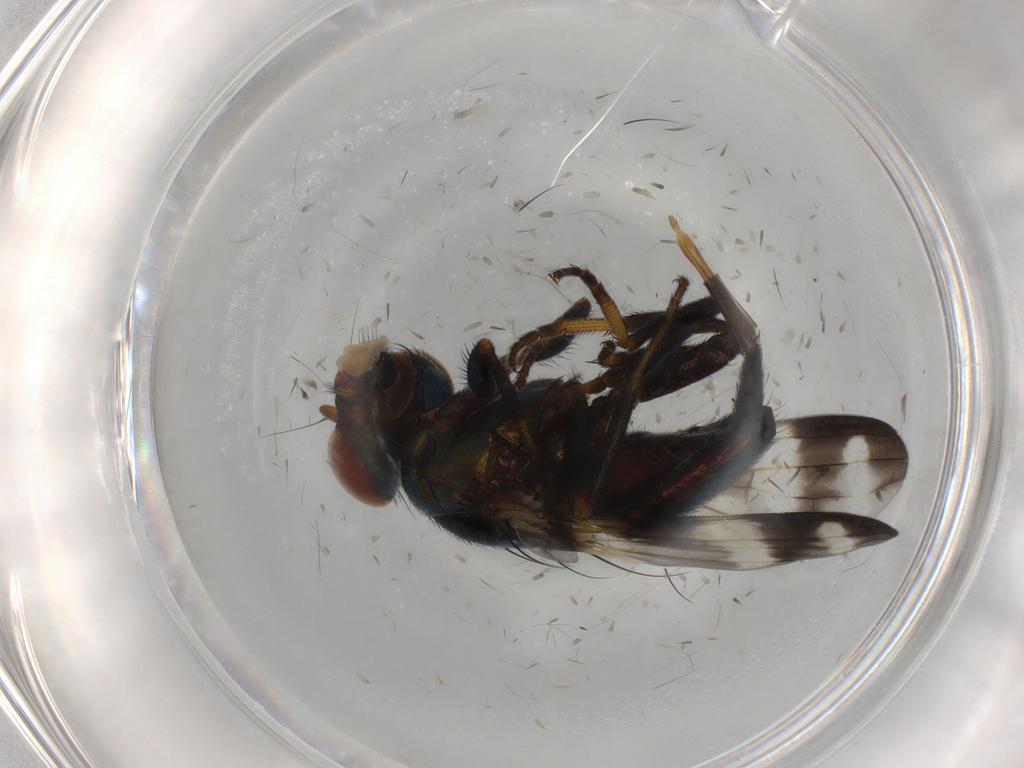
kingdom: Animalia
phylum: Arthropoda
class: Insecta
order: Diptera
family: Ulidiidae
